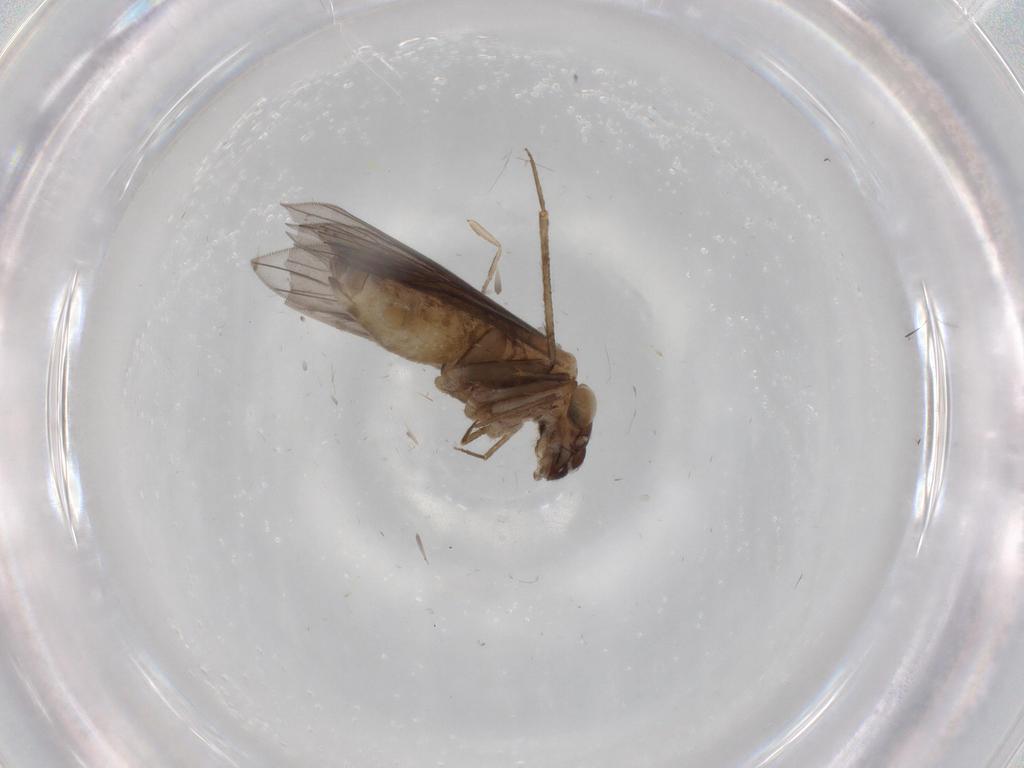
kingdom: Animalia
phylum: Arthropoda
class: Insecta
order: Psocodea
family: Lepidopsocidae
